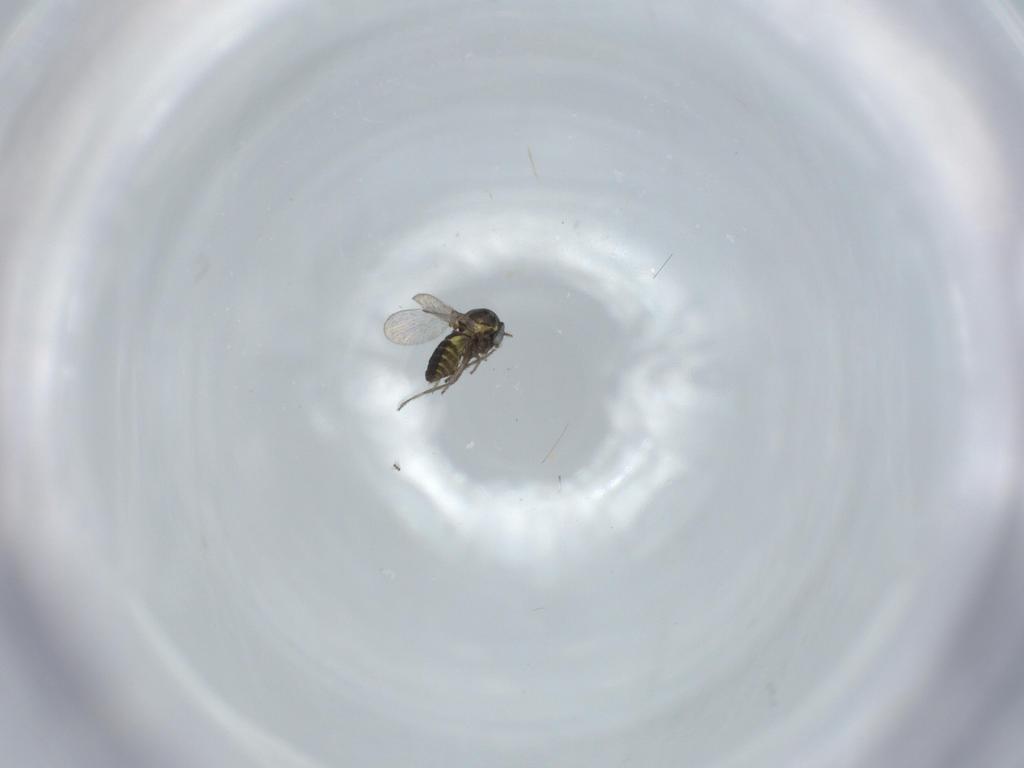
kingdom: Animalia
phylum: Arthropoda
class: Insecta
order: Diptera
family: Ceratopogonidae
